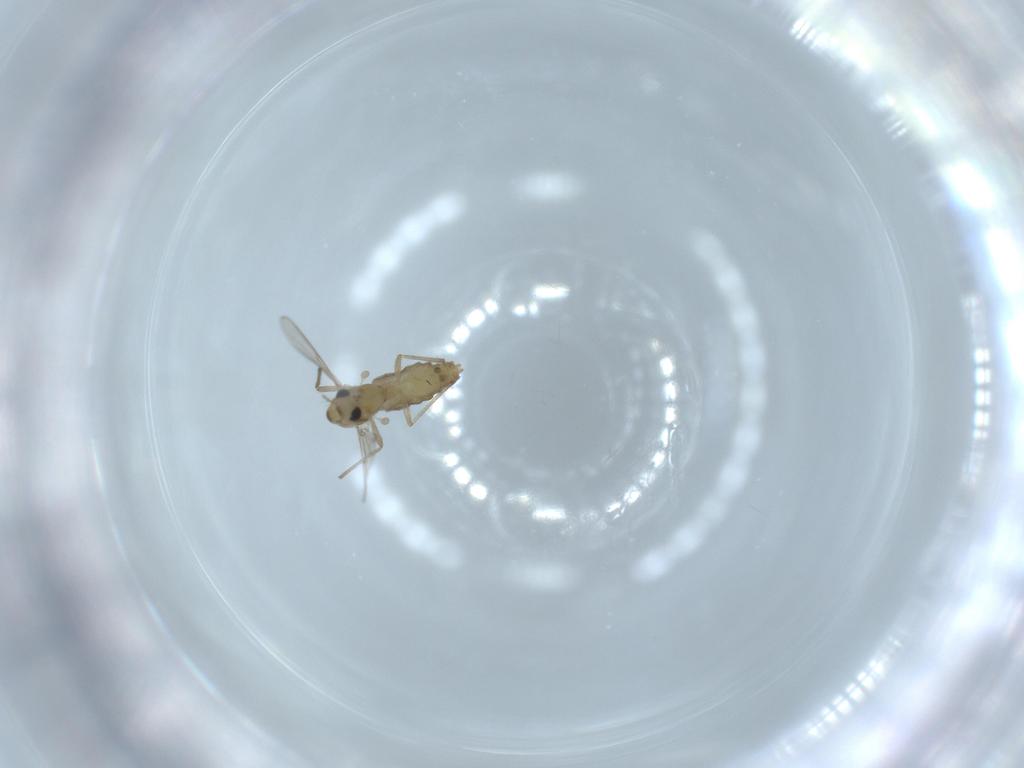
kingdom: Animalia
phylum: Arthropoda
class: Insecta
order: Diptera
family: Chironomidae
